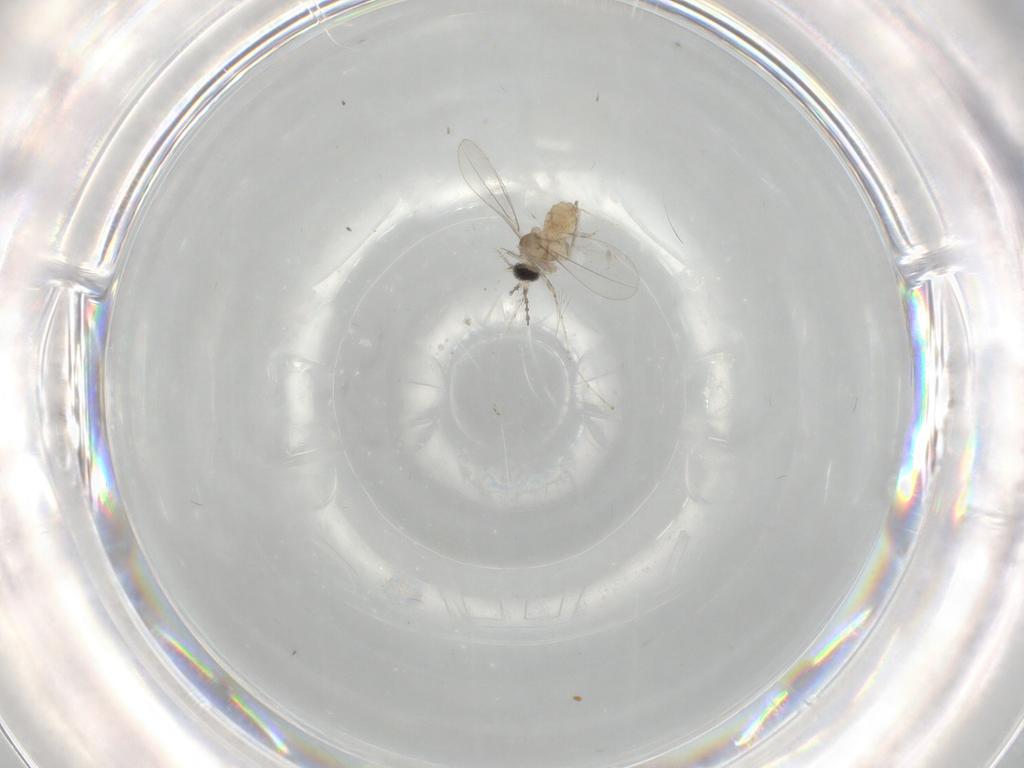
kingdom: Animalia
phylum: Arthropoda
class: Insecta
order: Diptera
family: Cecidomyiidae
